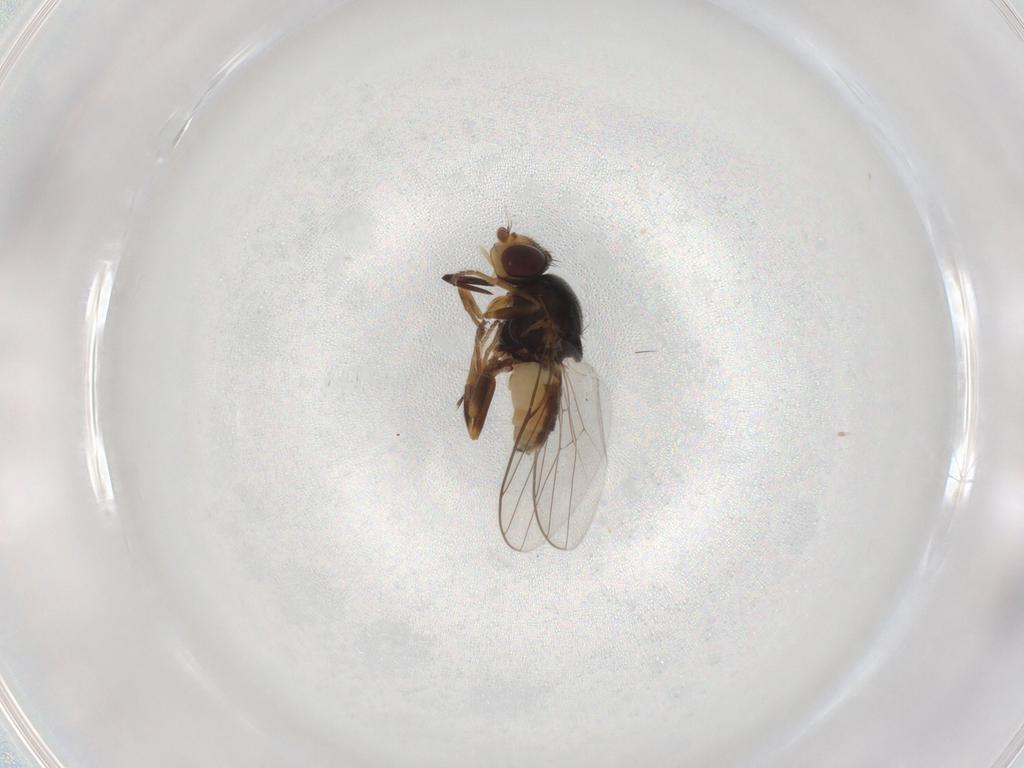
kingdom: Animalia
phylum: Arthropoda
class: Insecta
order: Diptera
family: Chloropidae
